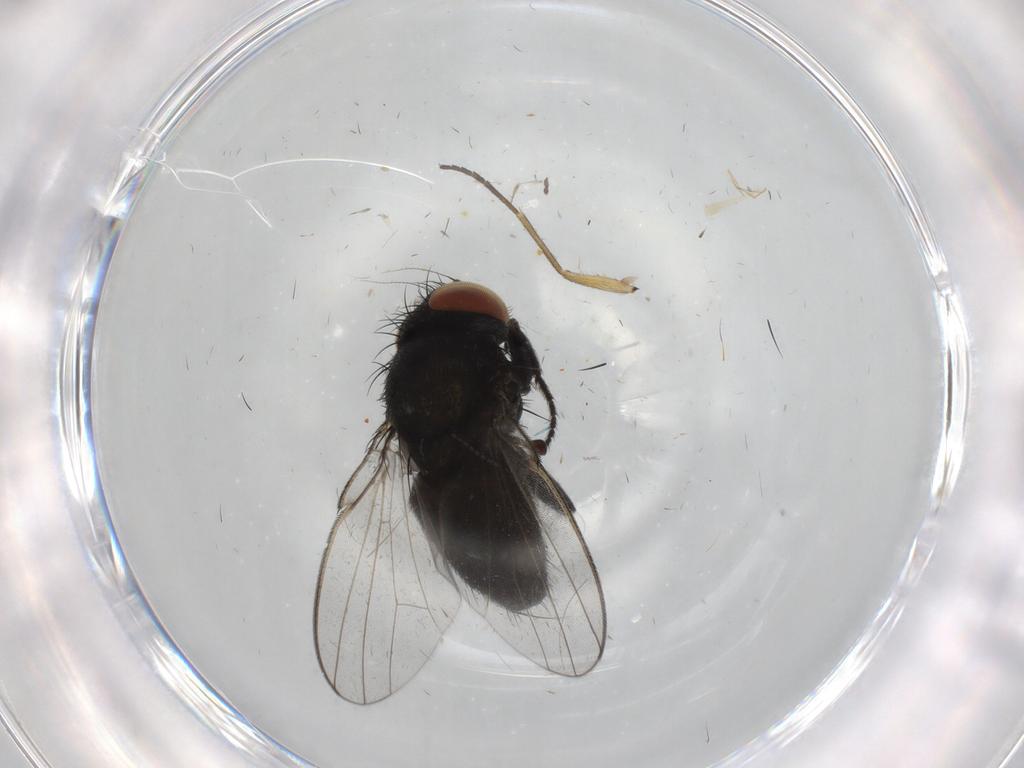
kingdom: Animalia
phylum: Arthropoda
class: Insecta
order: Diptera
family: Milichiidae
